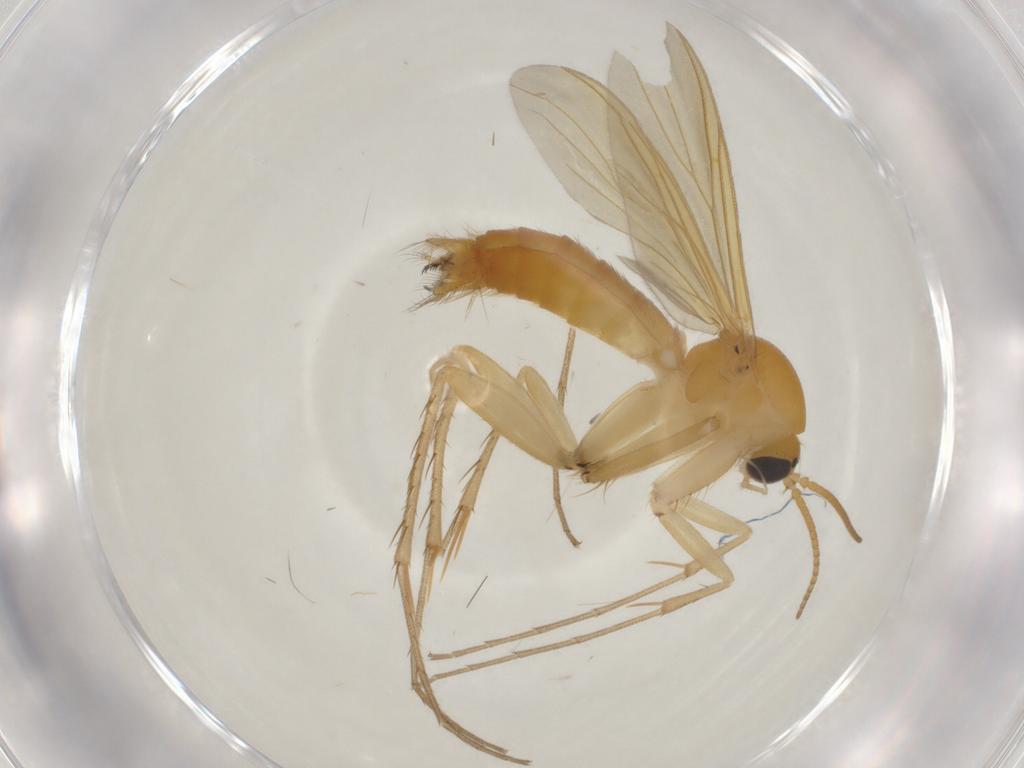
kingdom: Animalia
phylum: Arthropoda
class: Insecta
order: Diptera
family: Mycetophilidae
